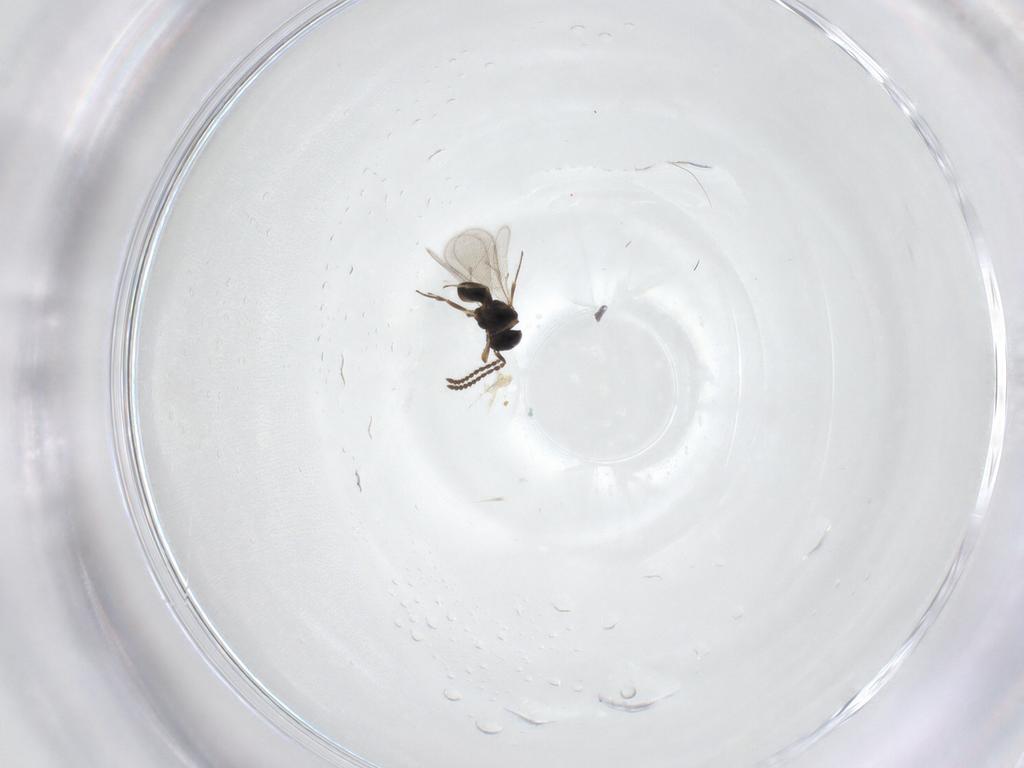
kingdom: Animalia
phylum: Arthropoda
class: Insecta
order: Hymenoptera
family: Scelionidae
